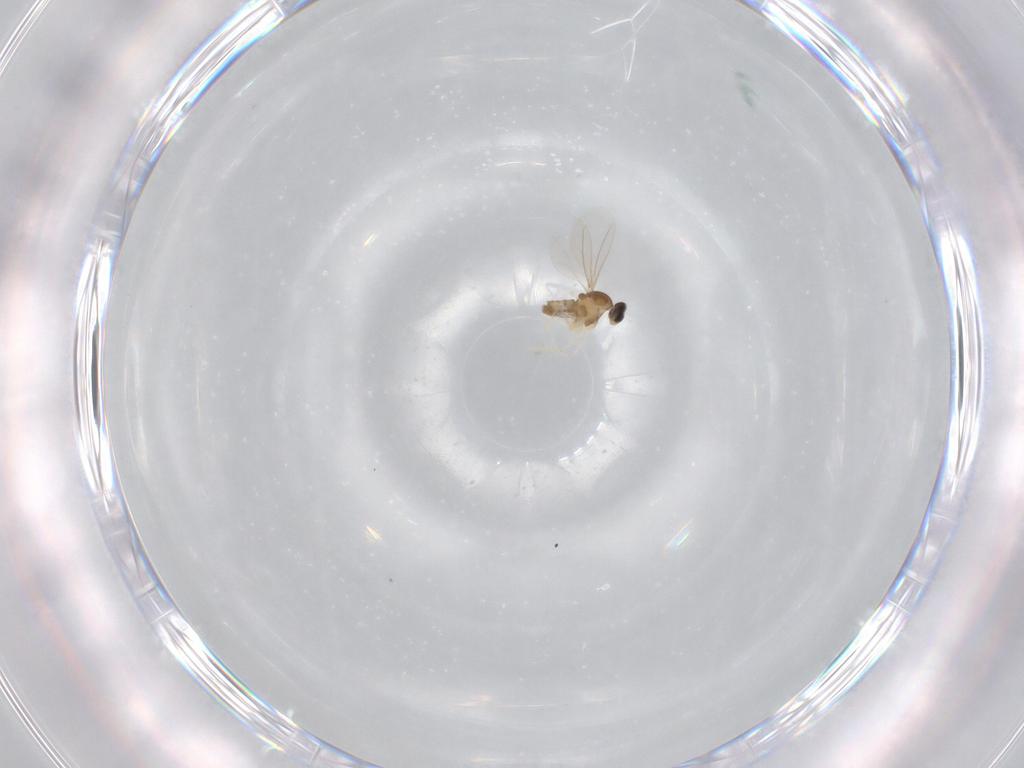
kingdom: Animalia
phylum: Arthropoda
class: Insecta
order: Diptera
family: Cecidomyiidae
